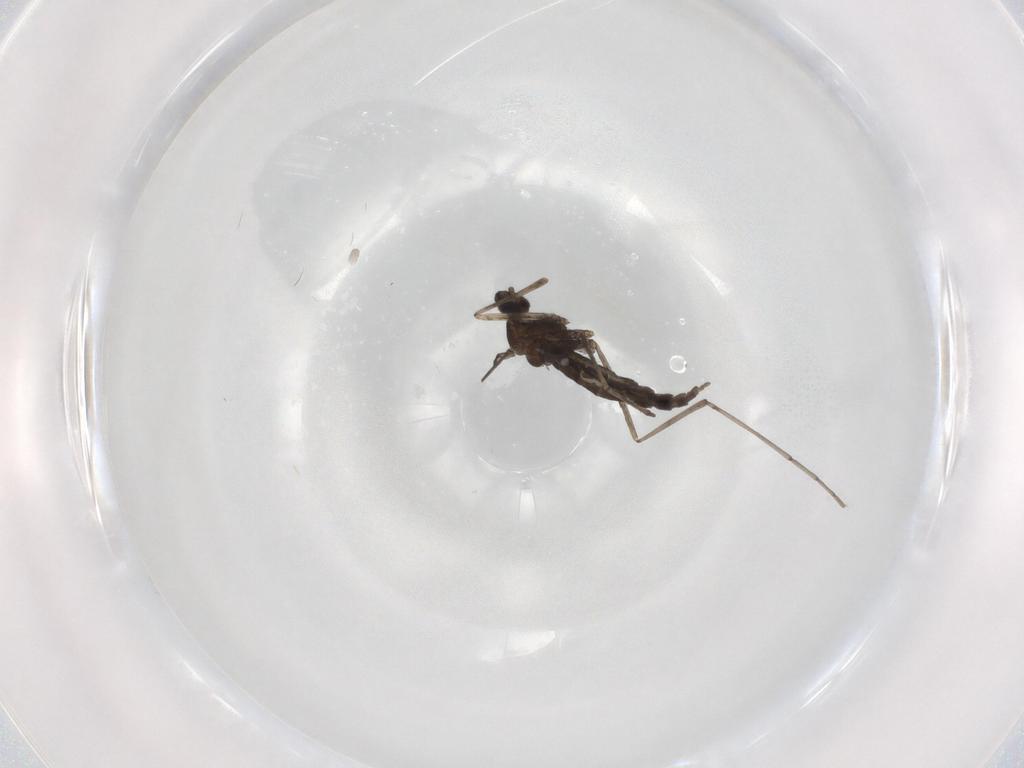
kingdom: Animalia
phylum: Arthropoda
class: Insecta
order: Diptera
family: Cecidomyiidae
